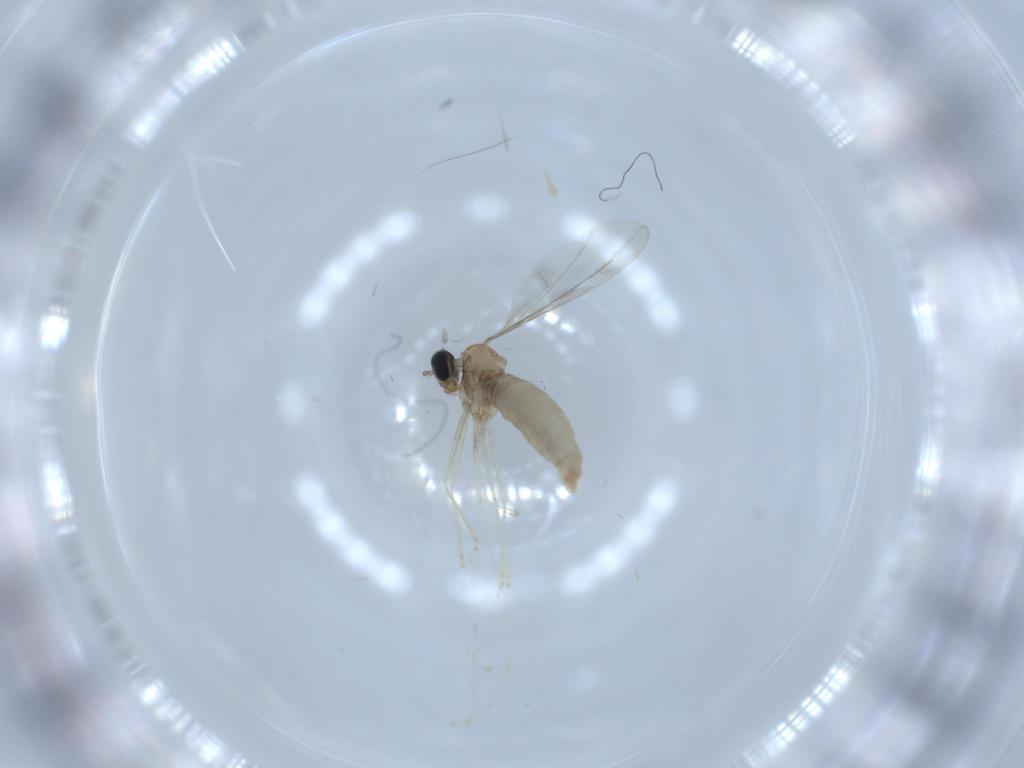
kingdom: Animalia
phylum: Arthropoda
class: Insecta
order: Diptera
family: Cecidomyiidae
